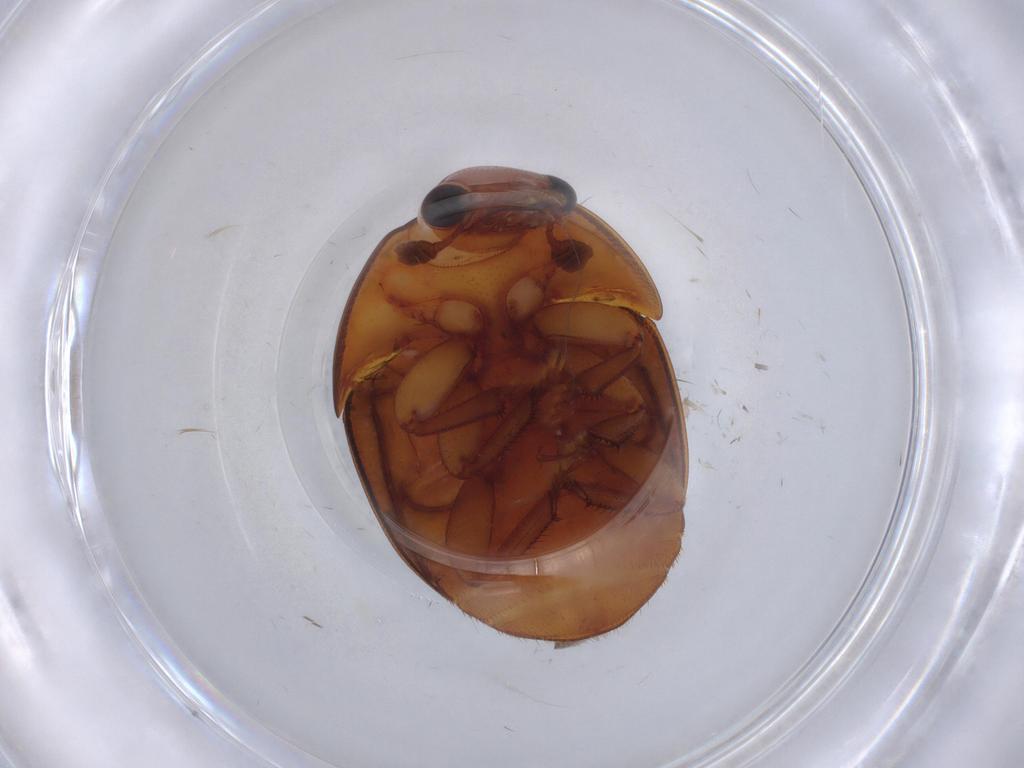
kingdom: Animalia
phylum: Arthropoda
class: Insecta
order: Coleoptera
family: Nitidulidae
